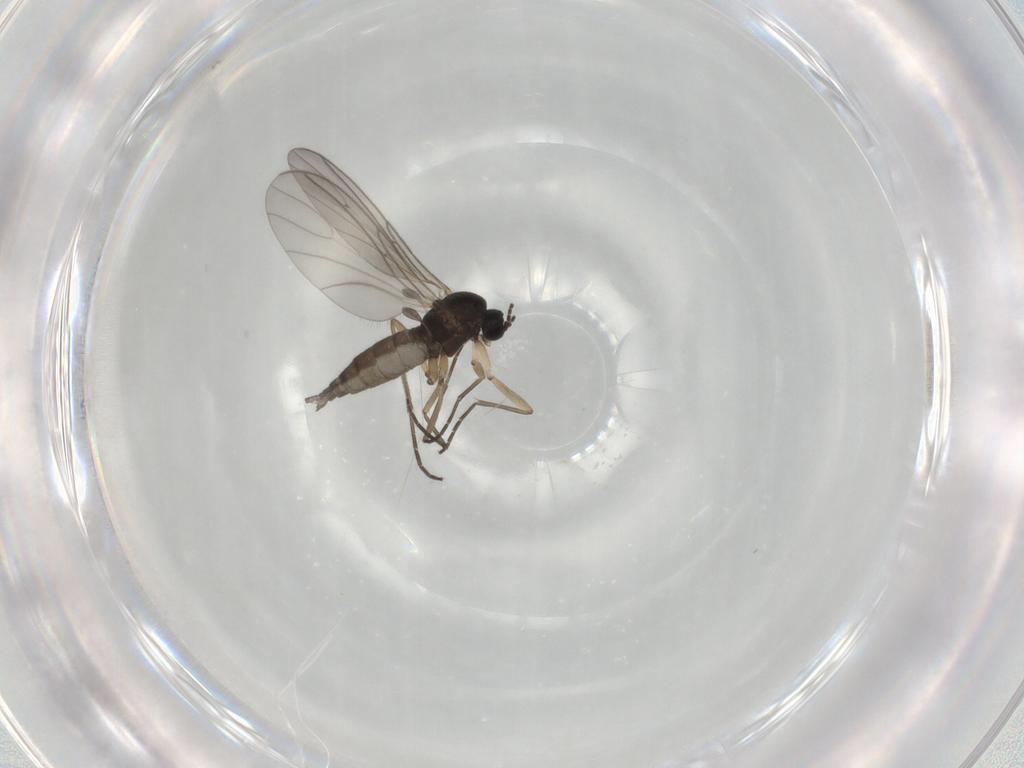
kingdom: Animalia
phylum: Arthropoda
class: Insecta
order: Diptera
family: Sciaridae
